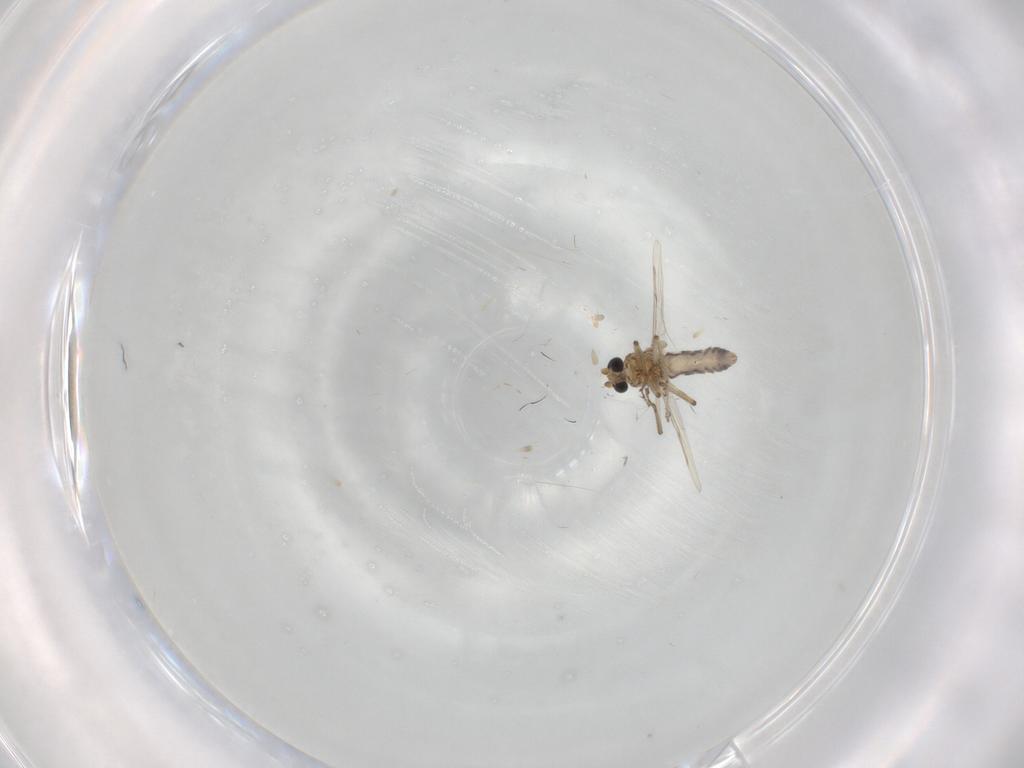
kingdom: Animalia
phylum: Arthropoda
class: Insecta
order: Diptera
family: Ceratopogonidae
